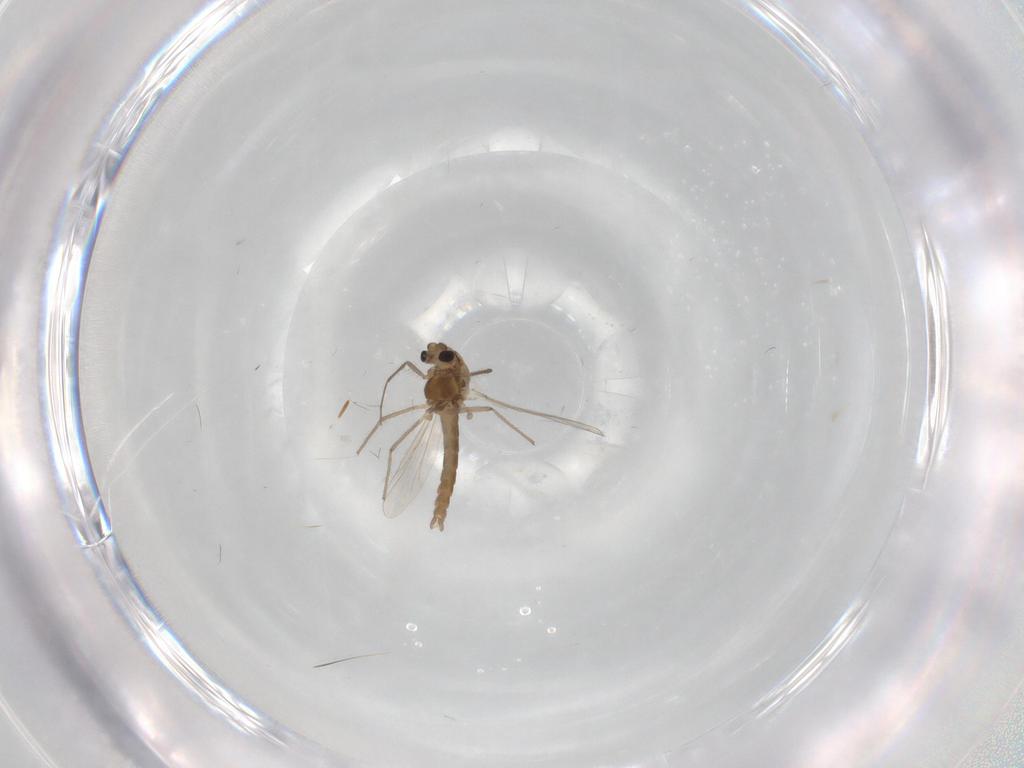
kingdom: Animalia
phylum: Arthropoda
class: Insecta
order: Diptera
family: Chironomidae
